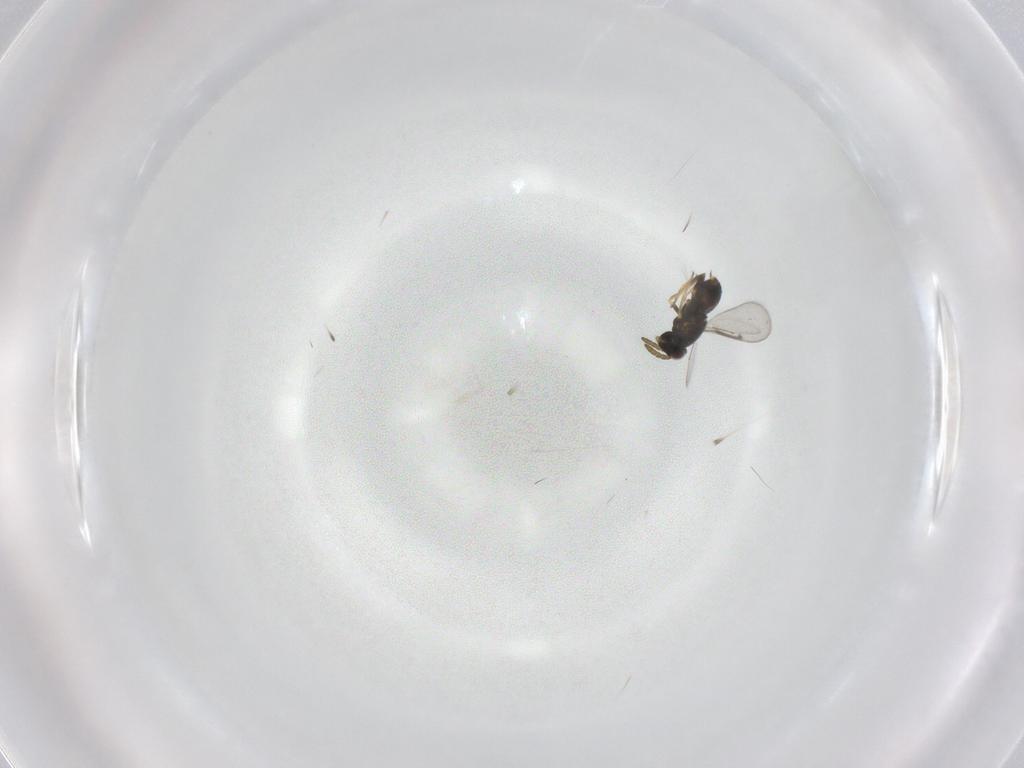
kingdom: Animalia
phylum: Arthropoda
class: Insecta
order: Hymenoptera
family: Aphelinidae
